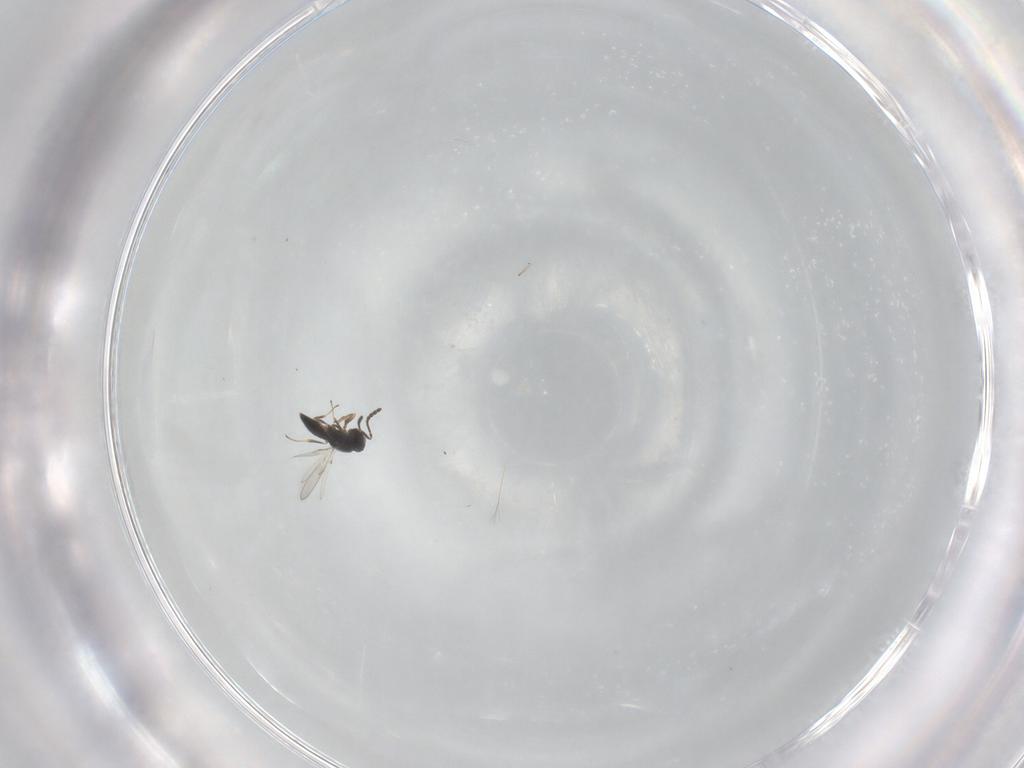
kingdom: Animalia
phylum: Arthropoda
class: Insecta
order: Hymenoptera
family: Scelionidae
